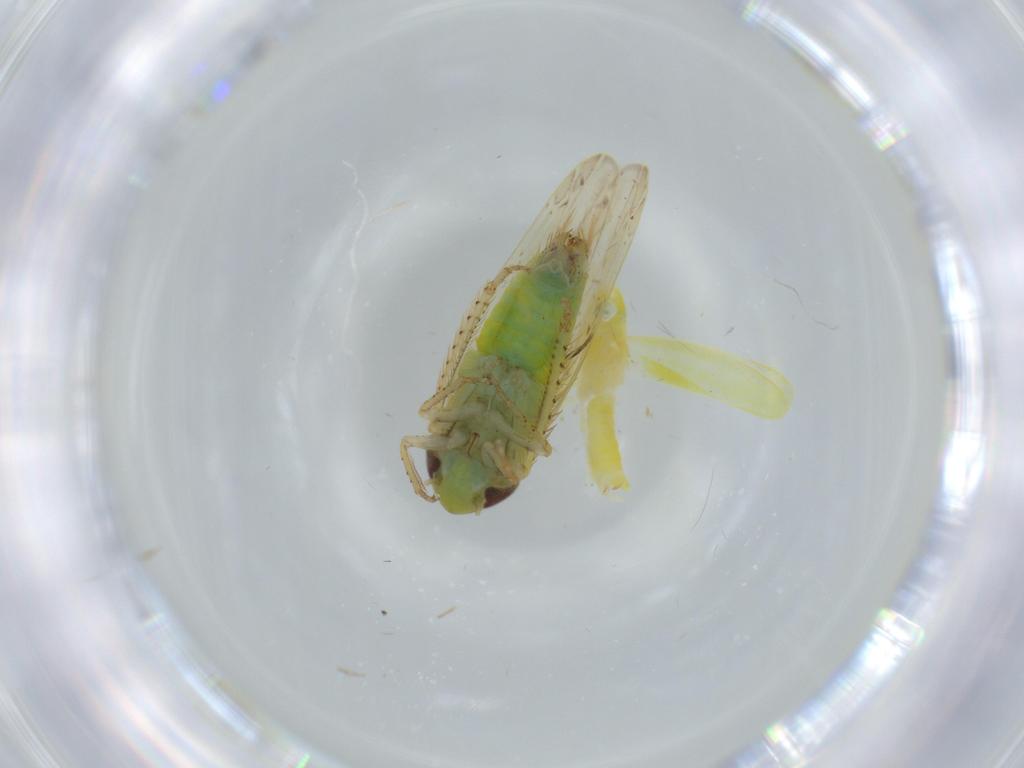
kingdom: Animalia
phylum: Arthropoda
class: Insecta
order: Hemiptera
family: Cicadellidae
